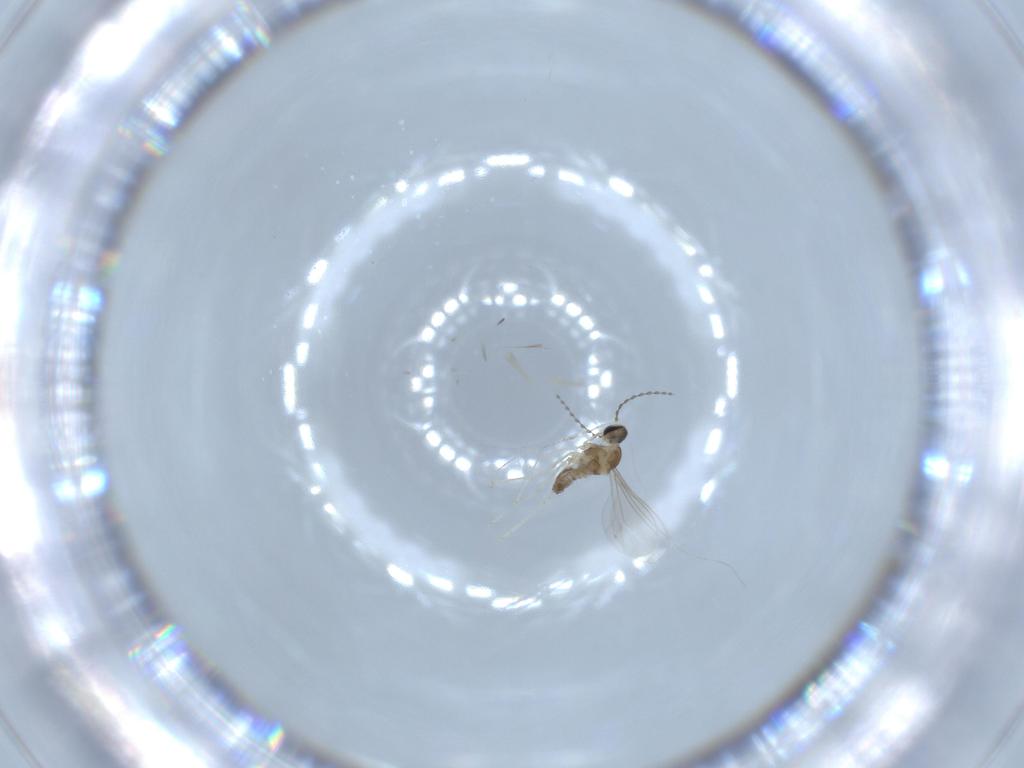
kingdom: Animalia
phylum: Arthropoda
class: Insecta
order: Diptera
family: Cecidomyiidae
